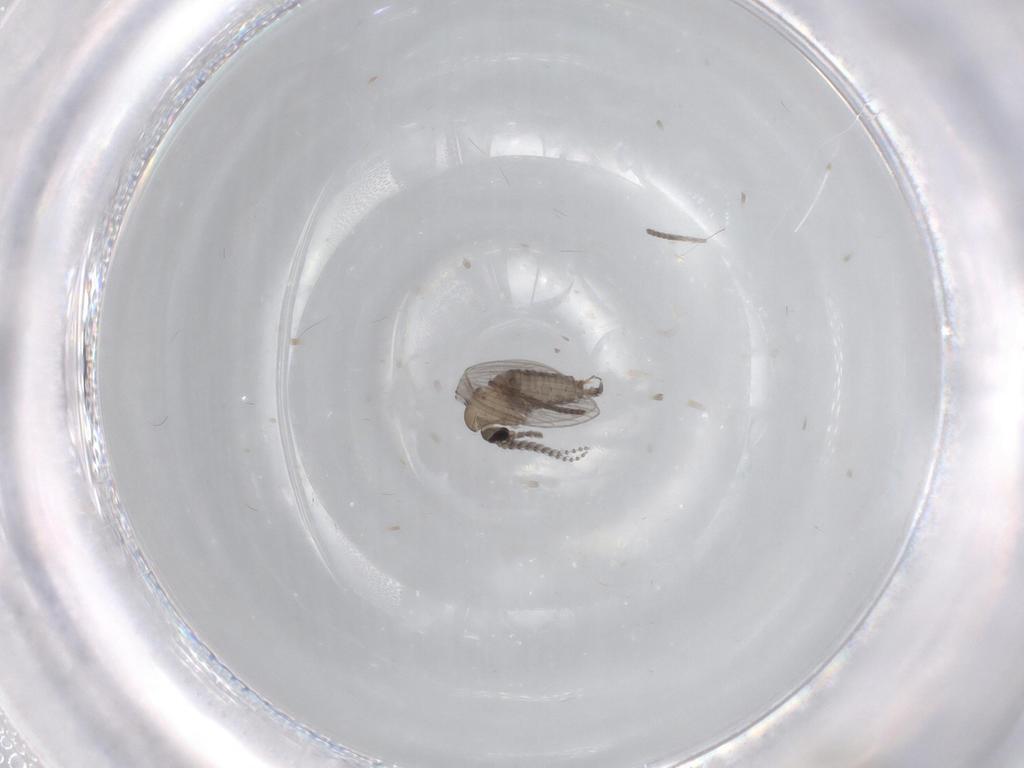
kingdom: Animalia
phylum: Arthropoda
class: Insecta
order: Diptera
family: Psychodidae
